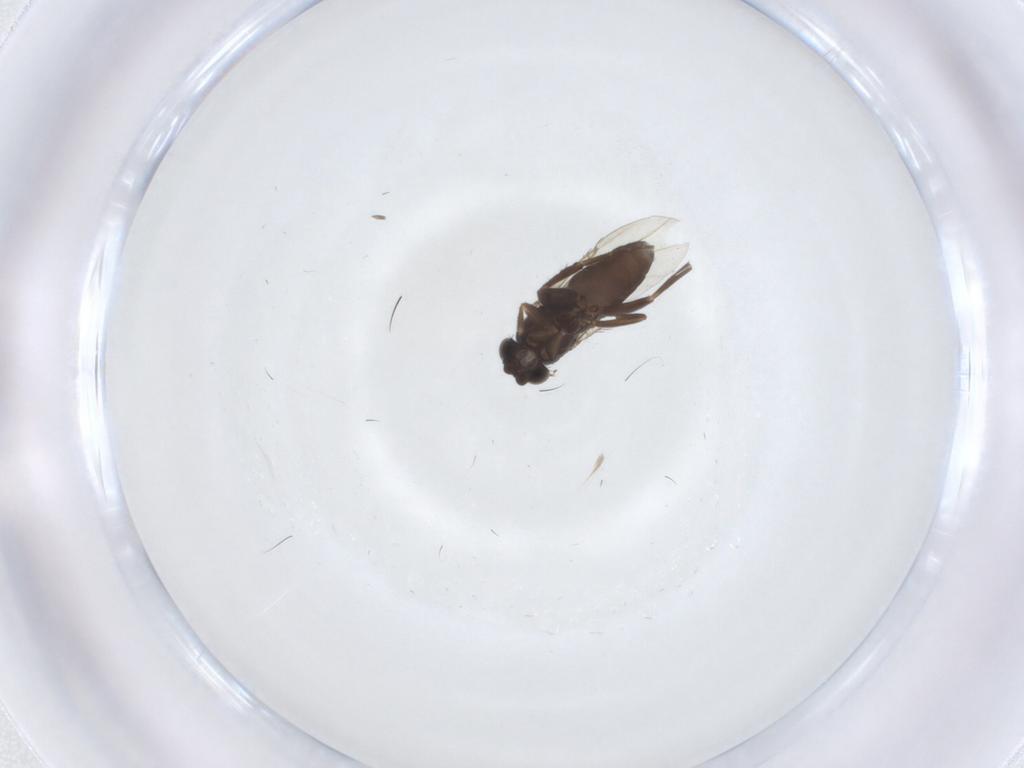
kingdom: Animalia
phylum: Arthropoda
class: Insecta
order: Diptera
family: Phoridae
